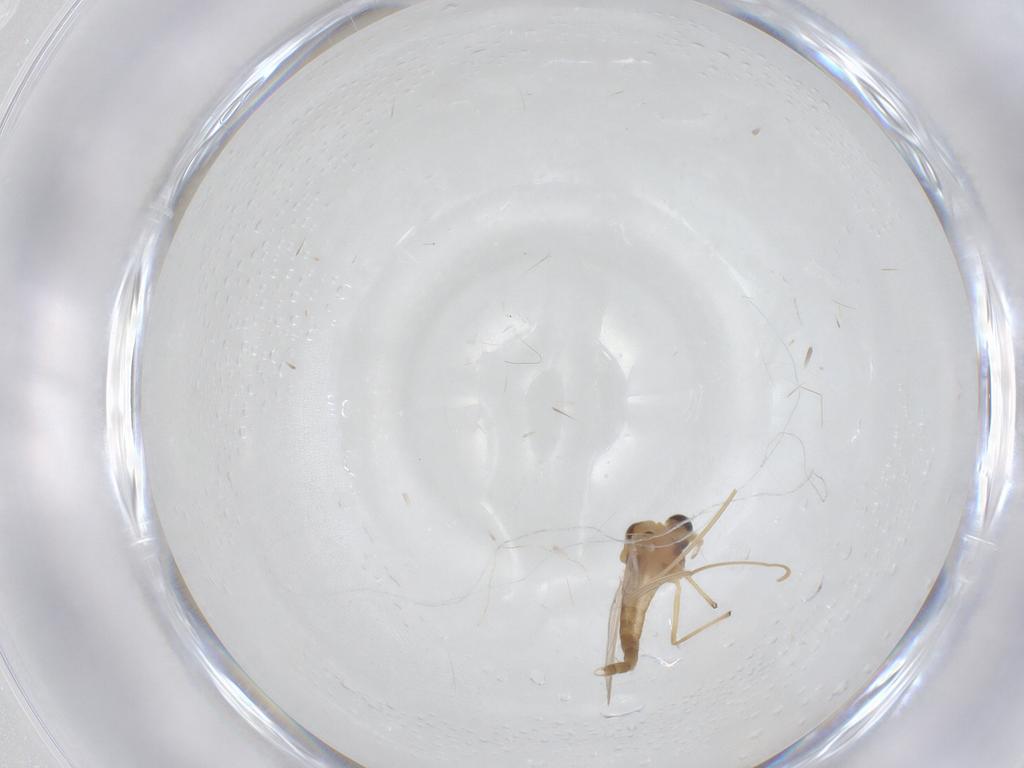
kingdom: Animalia
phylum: Arthropoda
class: Insecta
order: Diptera
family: Chironomidae
